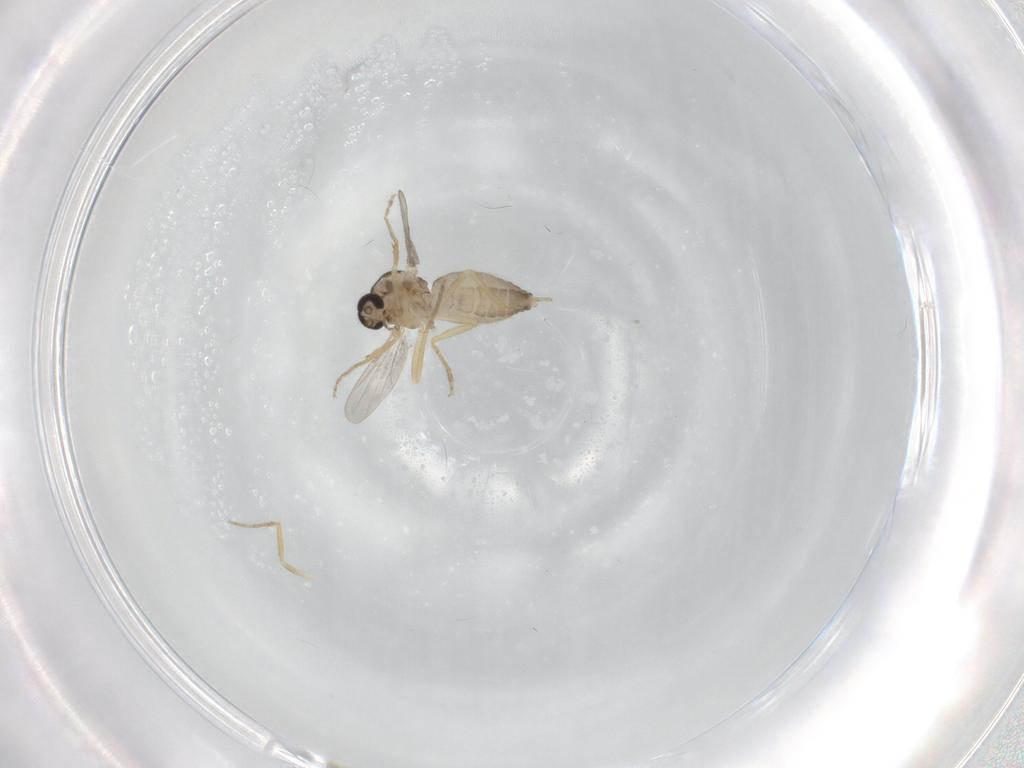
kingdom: Animalia
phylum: Arthropoda
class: Insecta
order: Diptera
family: Ceratopogonidae
